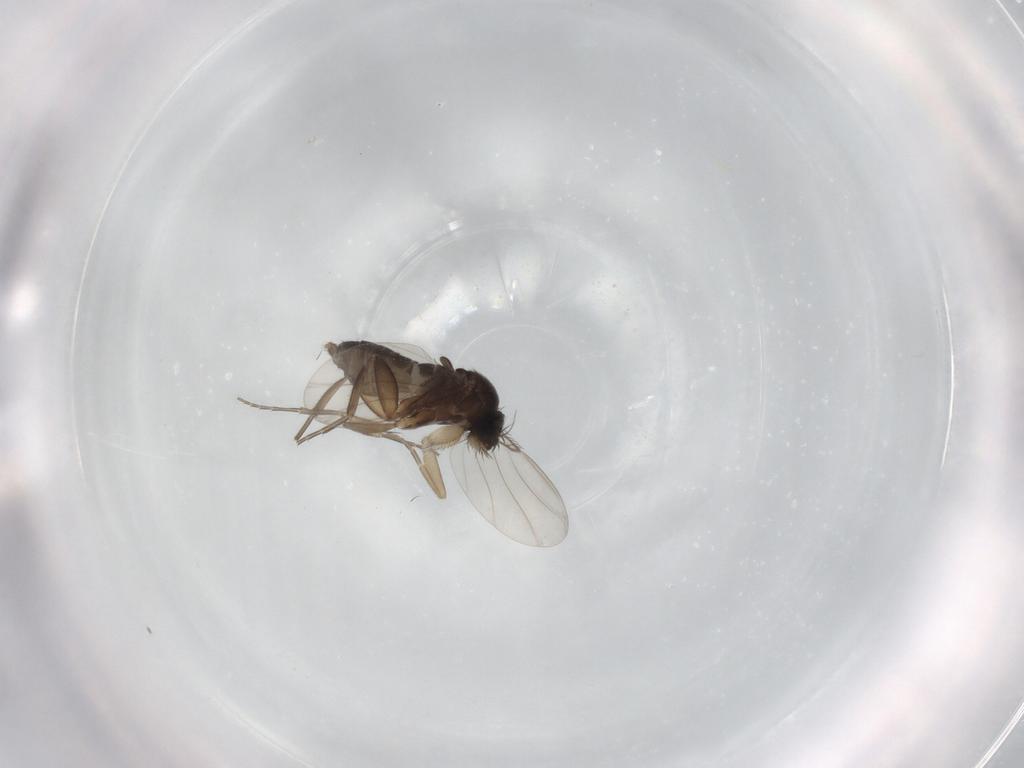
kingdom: Animalia
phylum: Arthropoda
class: Insecta
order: Diptera
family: Phoridae
